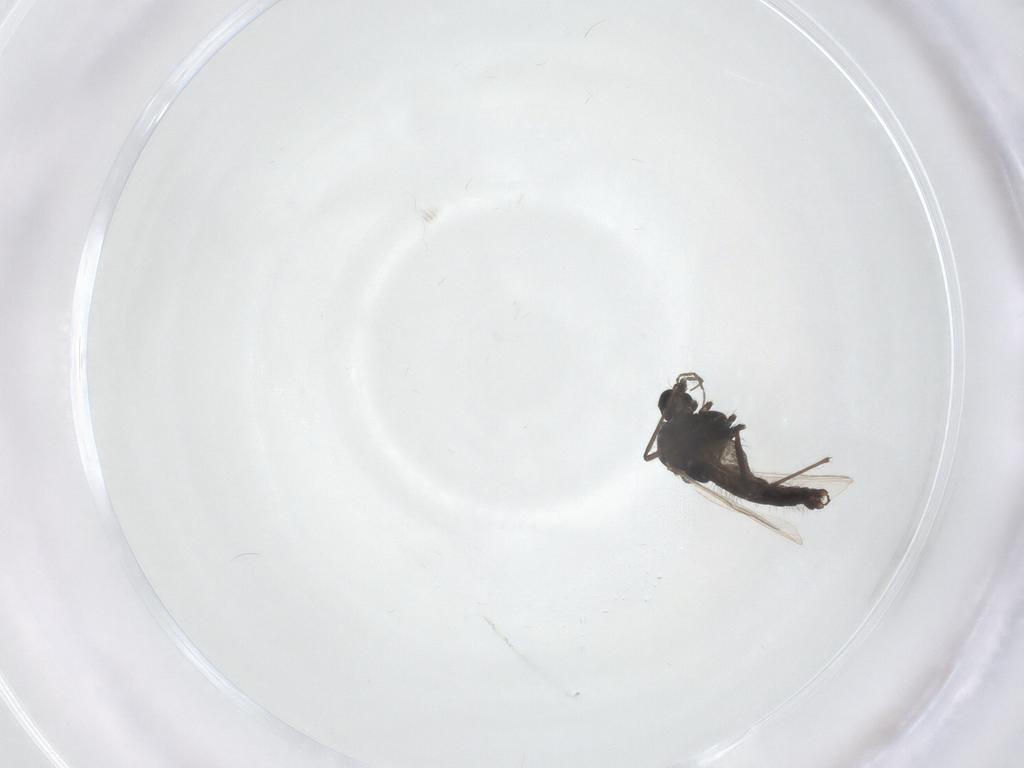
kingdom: Animalia
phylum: Arthropoda
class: Insecta
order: Diptera
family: Chironomidae
